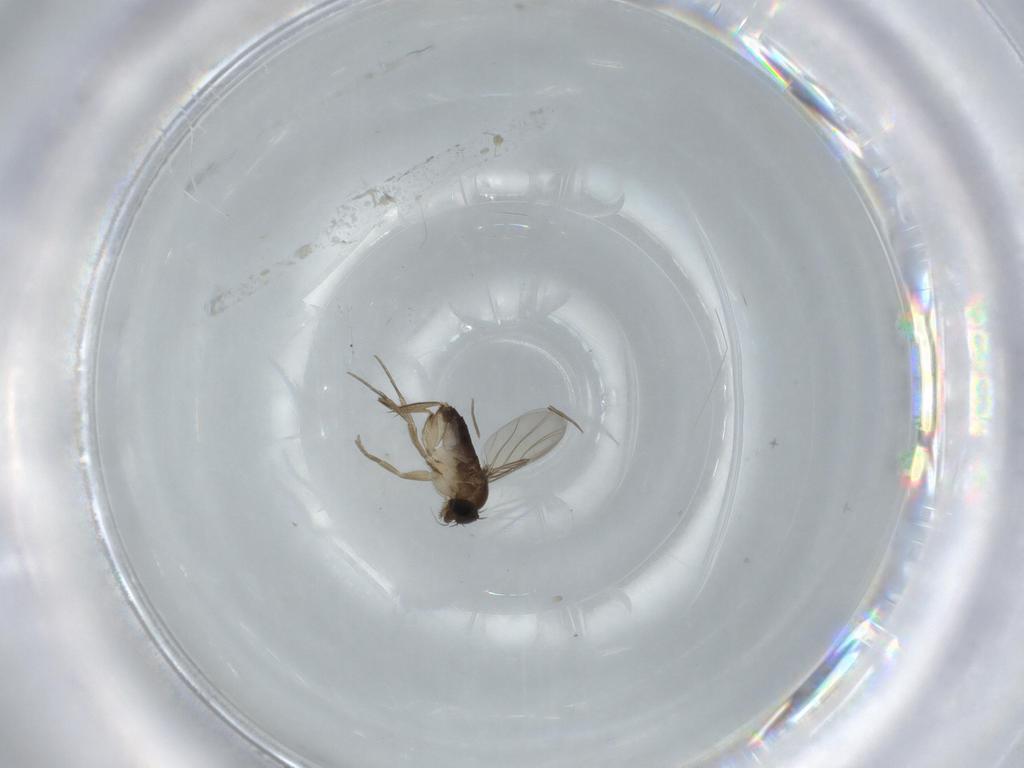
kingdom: Animalia
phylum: Arthropoda
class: Insecta
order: Diptera
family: Phoridae
